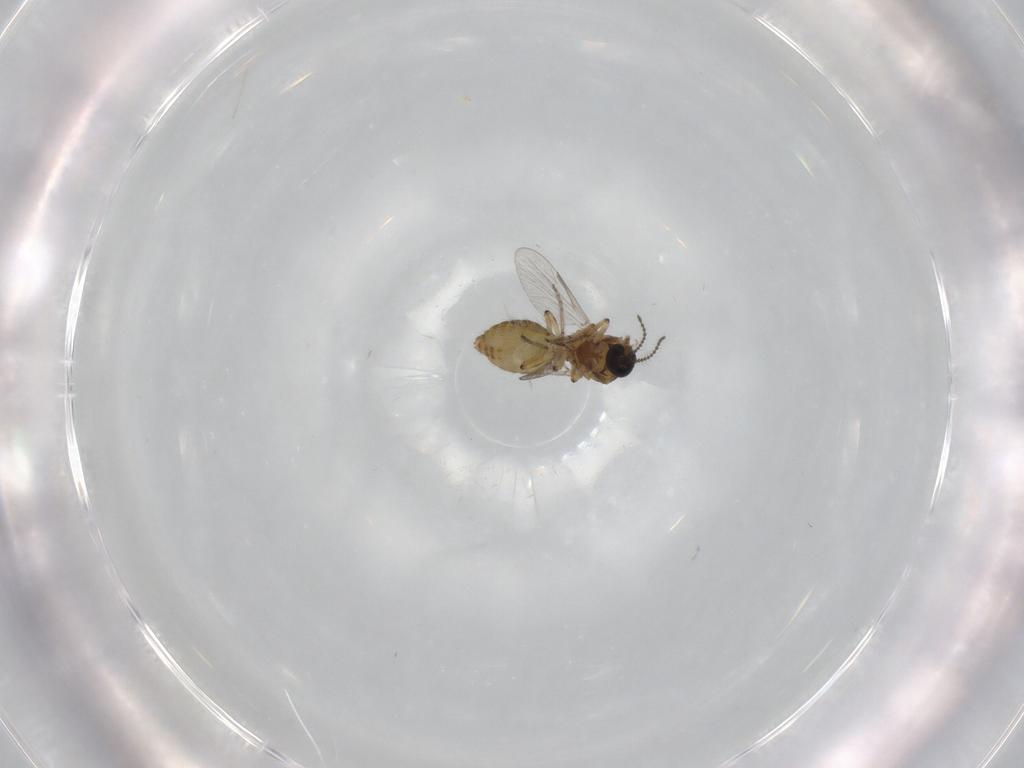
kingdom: Animalia
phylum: Arthropoda
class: Insecta
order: Diptera
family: Ceratopogonidae
